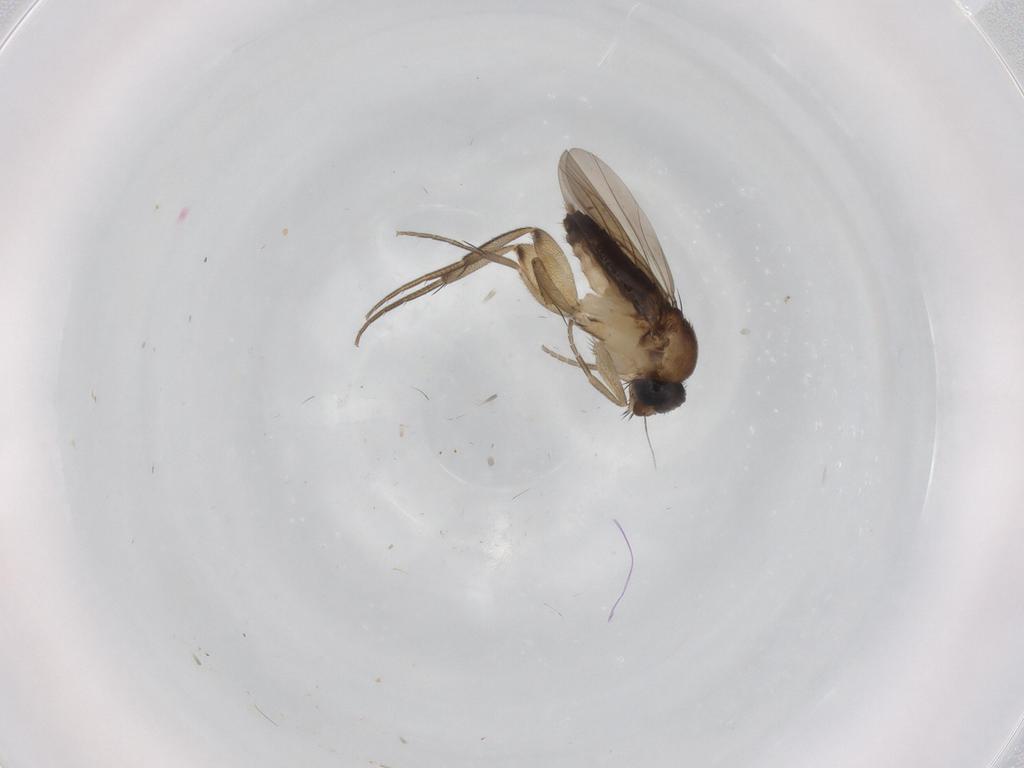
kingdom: Animalia
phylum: Arthropoda
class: Insecta
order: Diptera
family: Phoridae
